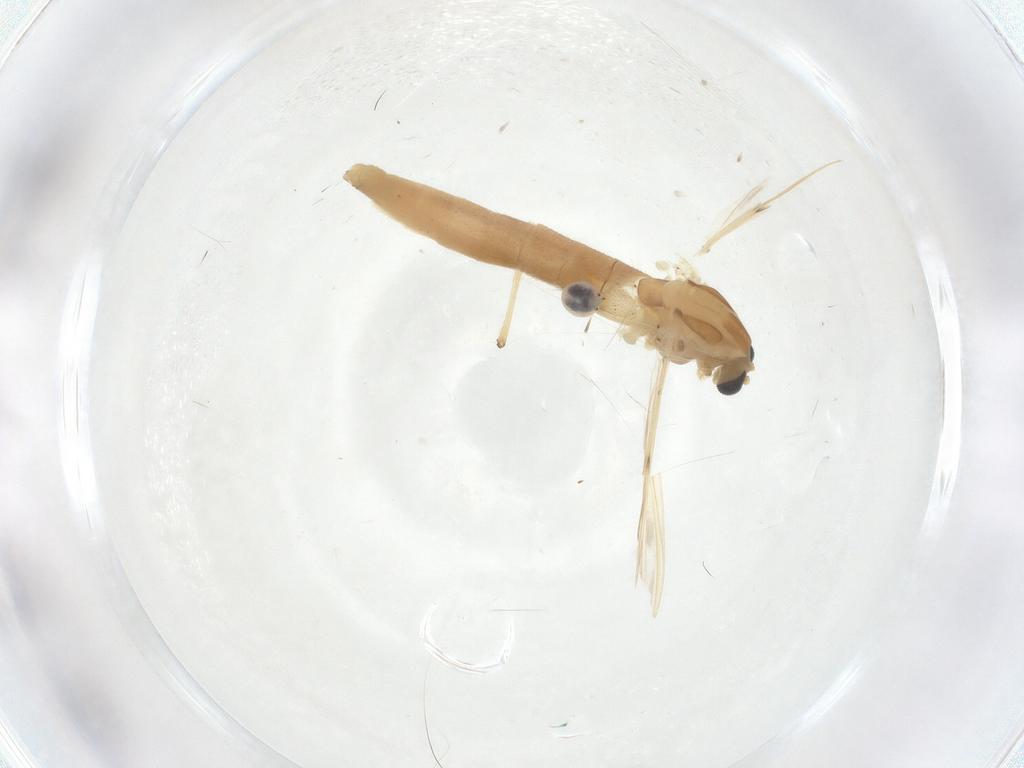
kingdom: Animalia
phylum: Arthropoda
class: Insecta
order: Diptera
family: Chironomidae
